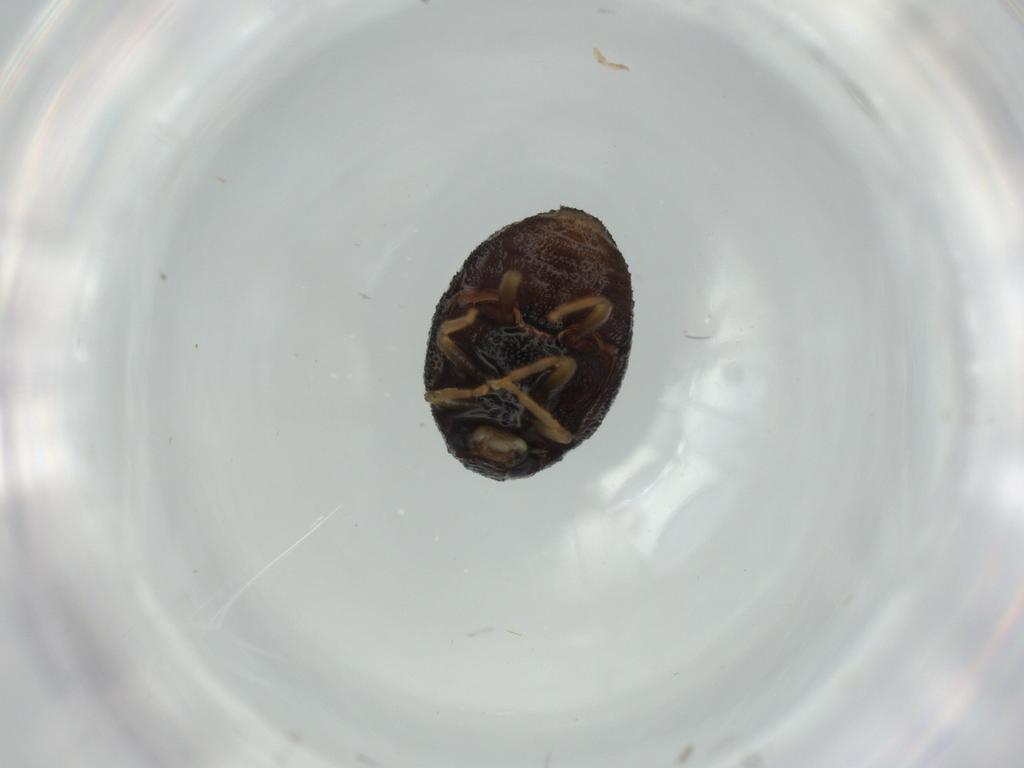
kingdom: Animalia
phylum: Arthropoda
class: Insecta
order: Coleoptera
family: Coccinellidae
